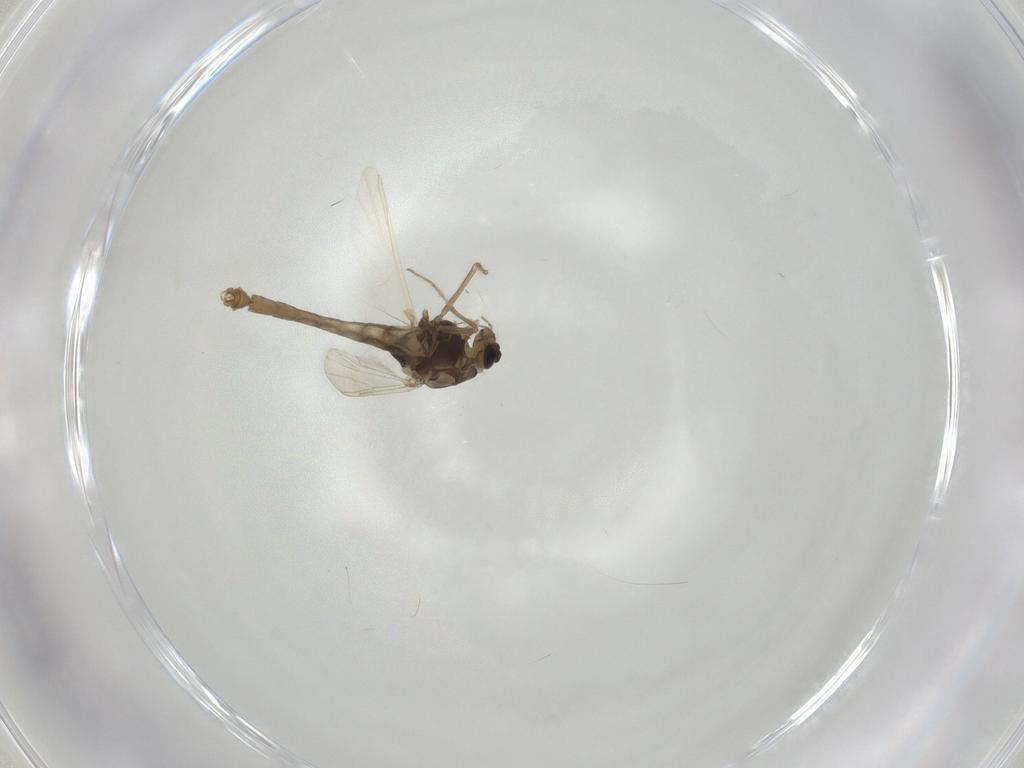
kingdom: Animalia
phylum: Arthropoda
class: Insecta
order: Diptera
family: Chironomidae
